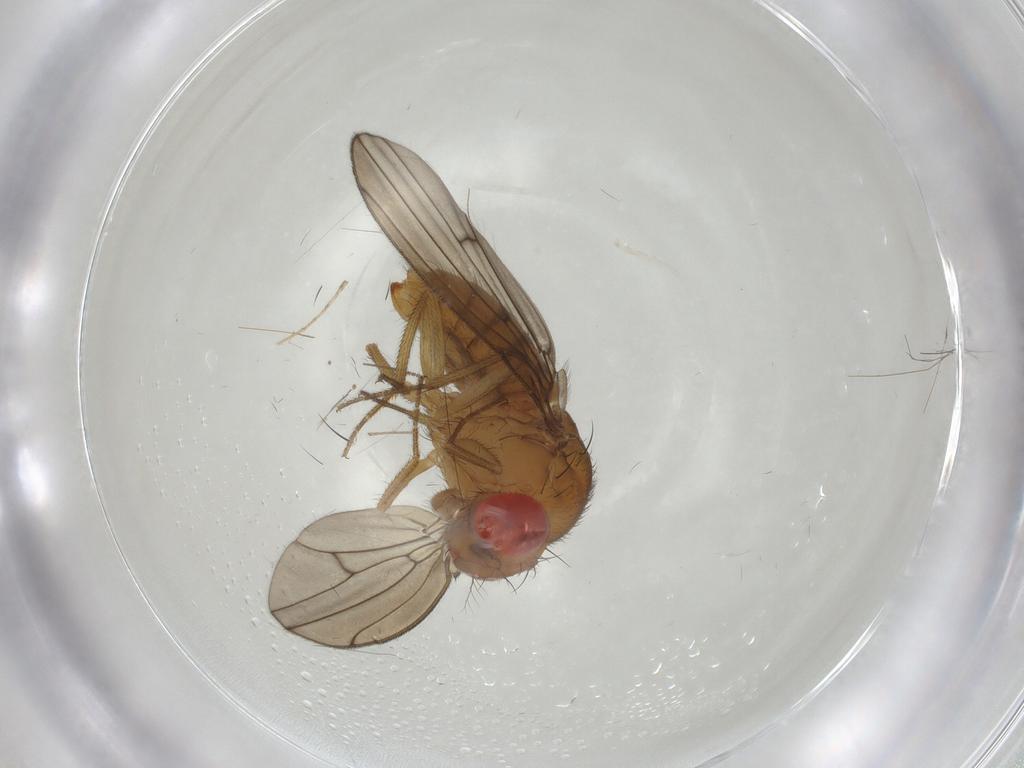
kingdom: Animalia
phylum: Arthropoda
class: Insecta
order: Diptera
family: Drosophilidae
